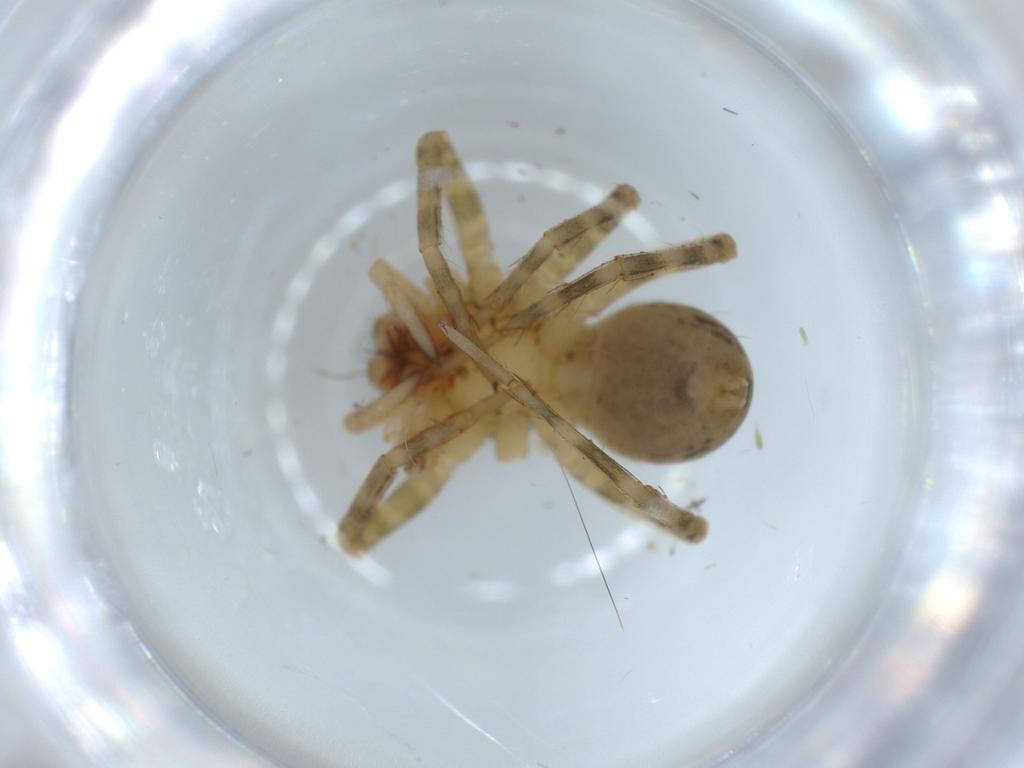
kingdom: Animalia
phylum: Arthropoda
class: Arachnida
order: Araneae
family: Ctenidae
